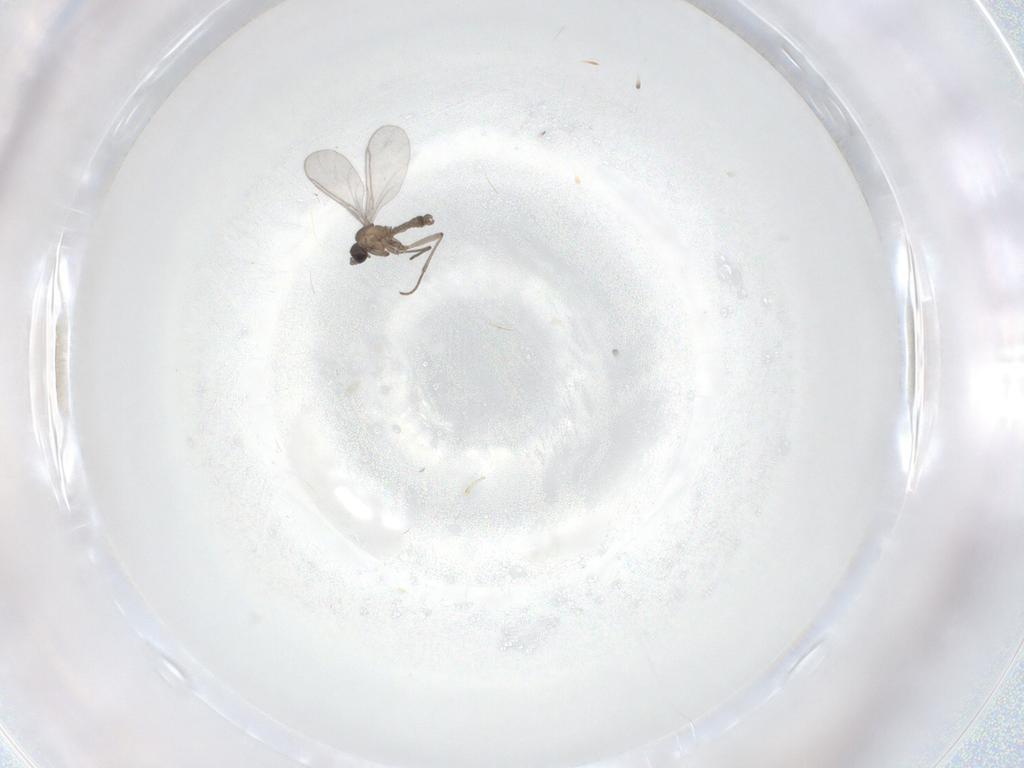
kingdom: Animalia
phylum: Arthropoda
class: Insecta
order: Diptera
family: Sciaridae
